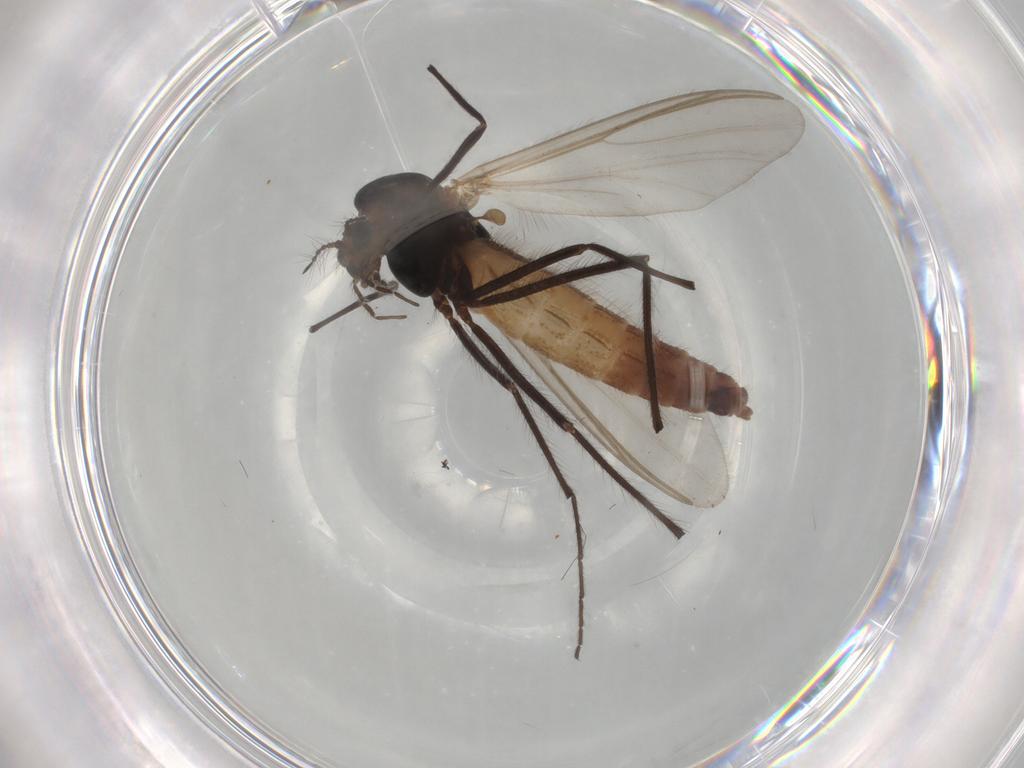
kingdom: Animalia
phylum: Arthropoda
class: Insecta
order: Diptera
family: Chironomidae
